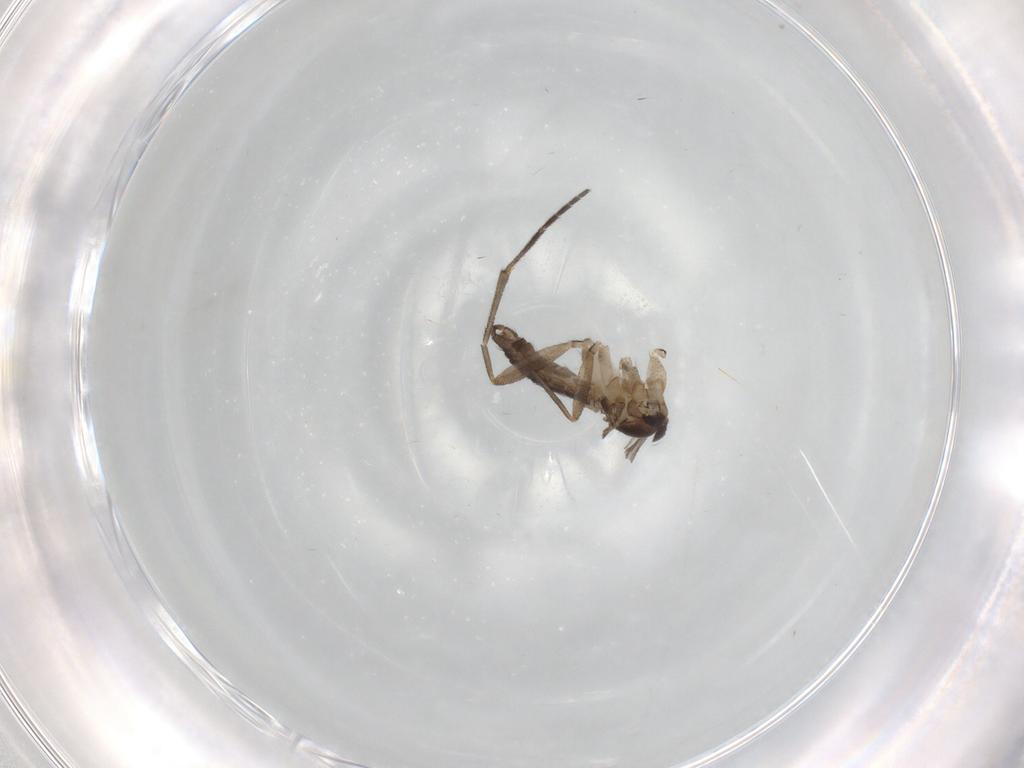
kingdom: Animalia
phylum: Arthropoda
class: Insecta
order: Diptera
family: Sciaridae
